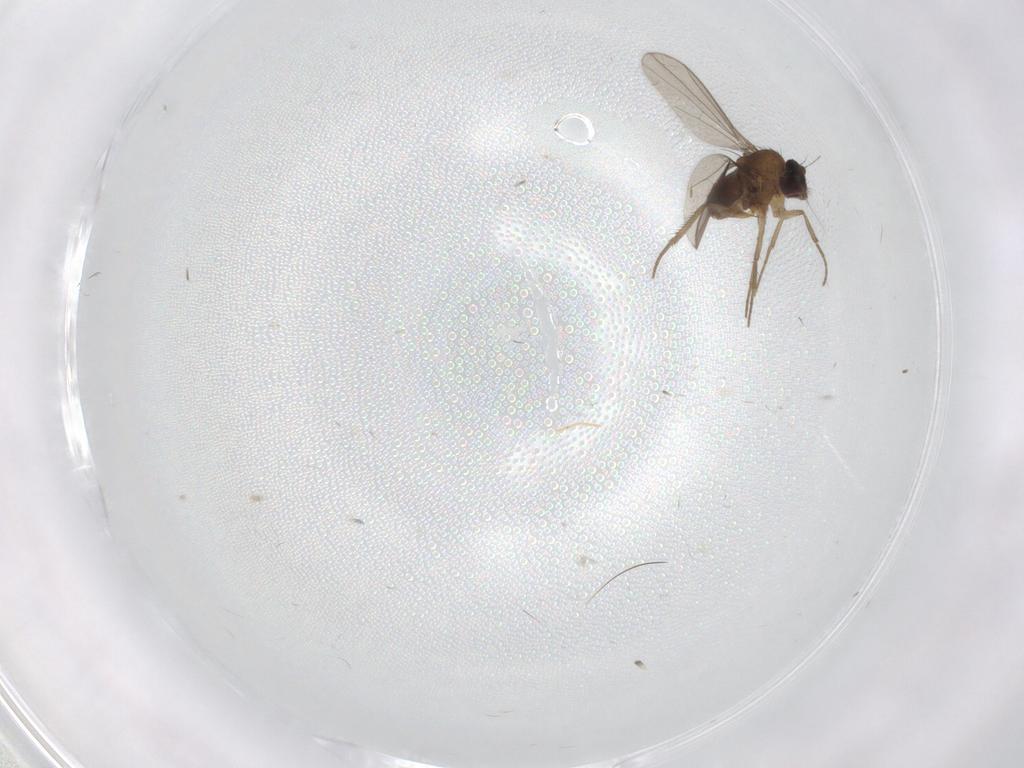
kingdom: Animalia
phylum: Arthropoda
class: Insecta
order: Diptera
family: Dolichopodidae
